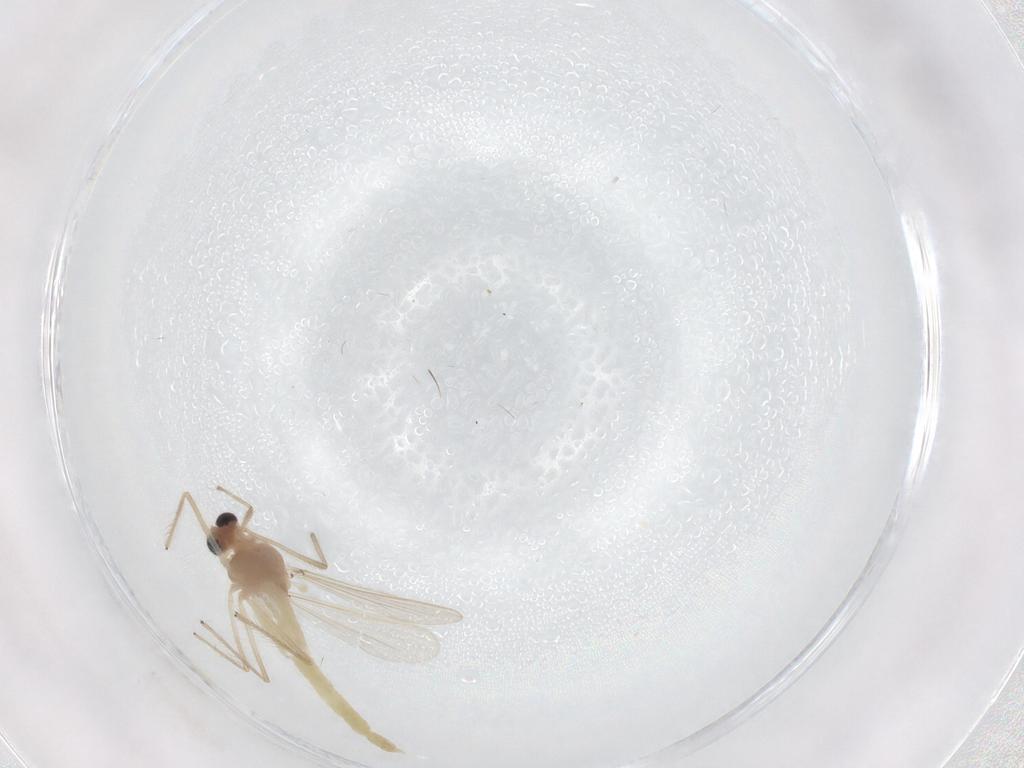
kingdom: Animalia
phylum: Arthropoda
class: Insecta
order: Diptera
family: Chironomidae
